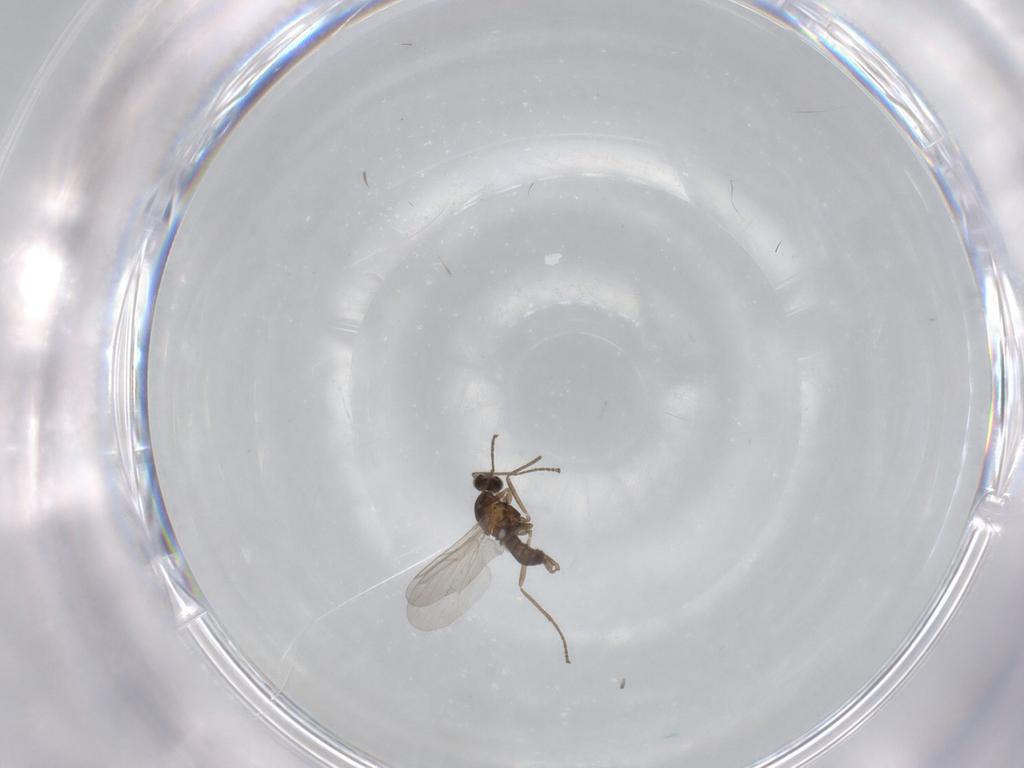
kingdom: Animalia
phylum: Arthropoda
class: Insecta
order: Diptera
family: Cecidomyiidae
